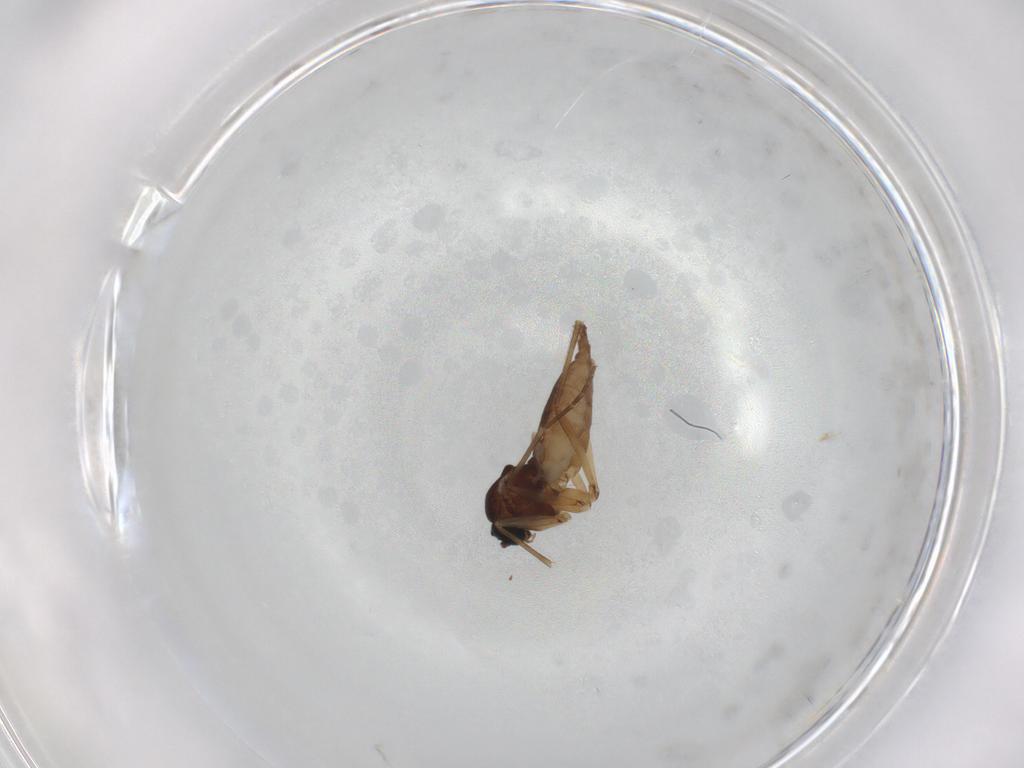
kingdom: Animalia
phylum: Arthropoda
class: Insecta
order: Diptera
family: Sciaridae
